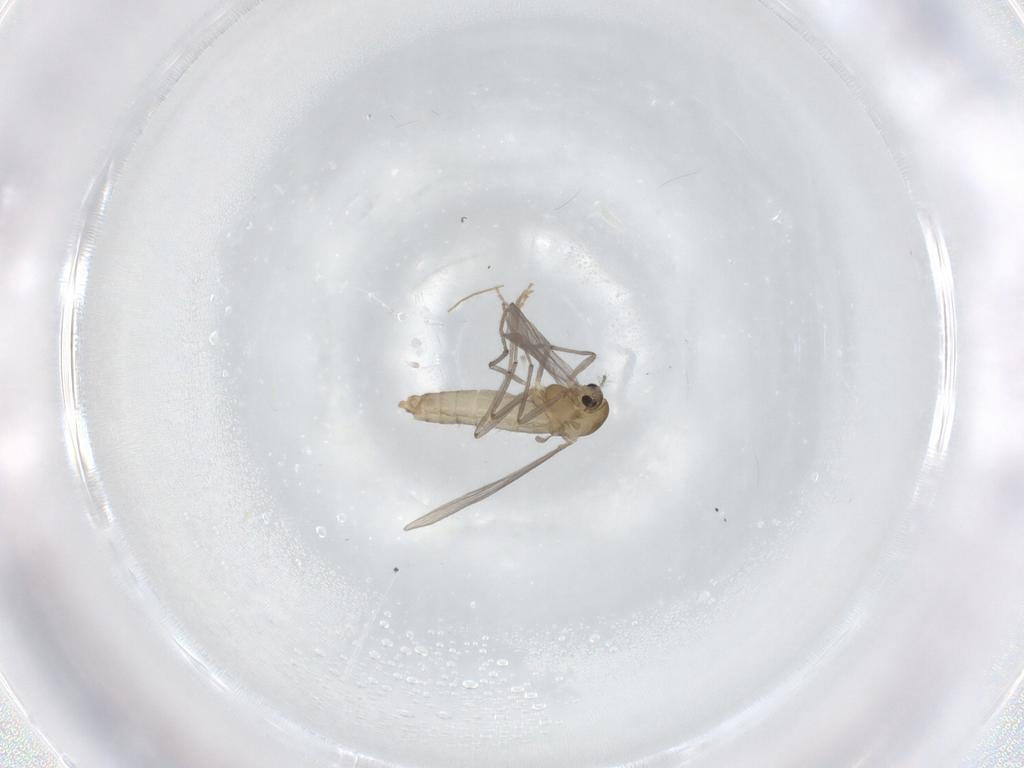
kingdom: Animalia
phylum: Arthropoda
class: Insecta
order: Diptera
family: Chironomidae
